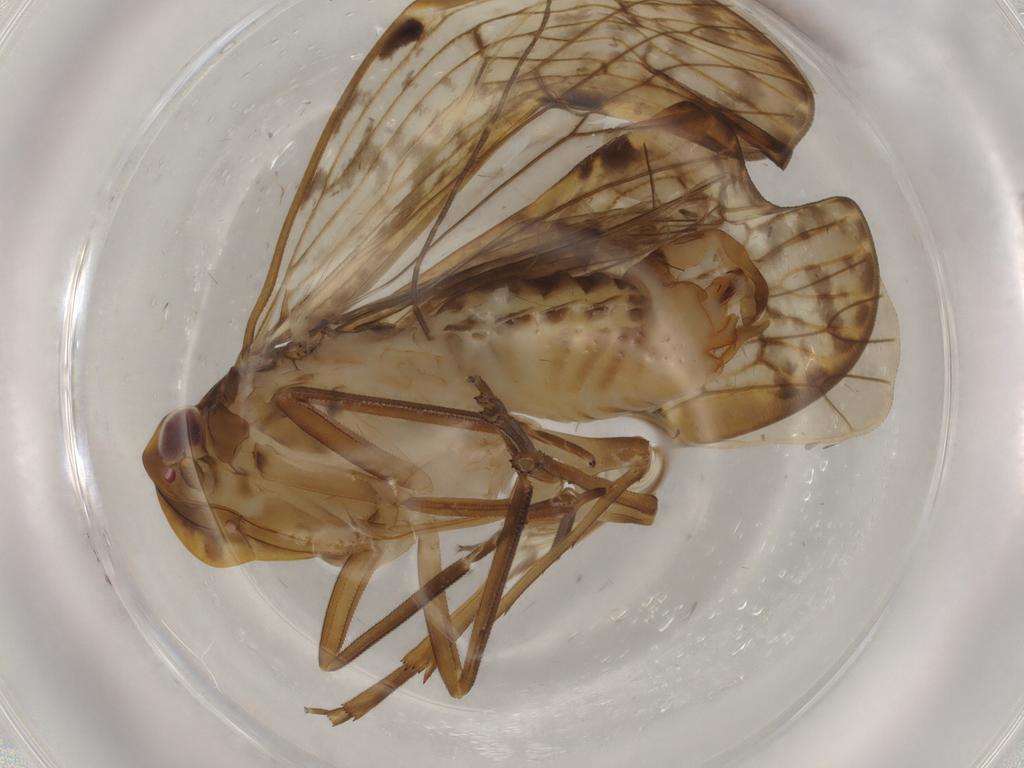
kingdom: Animalia
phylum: Arthropoda
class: Insecta
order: Hemiptera
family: Cixiidae
